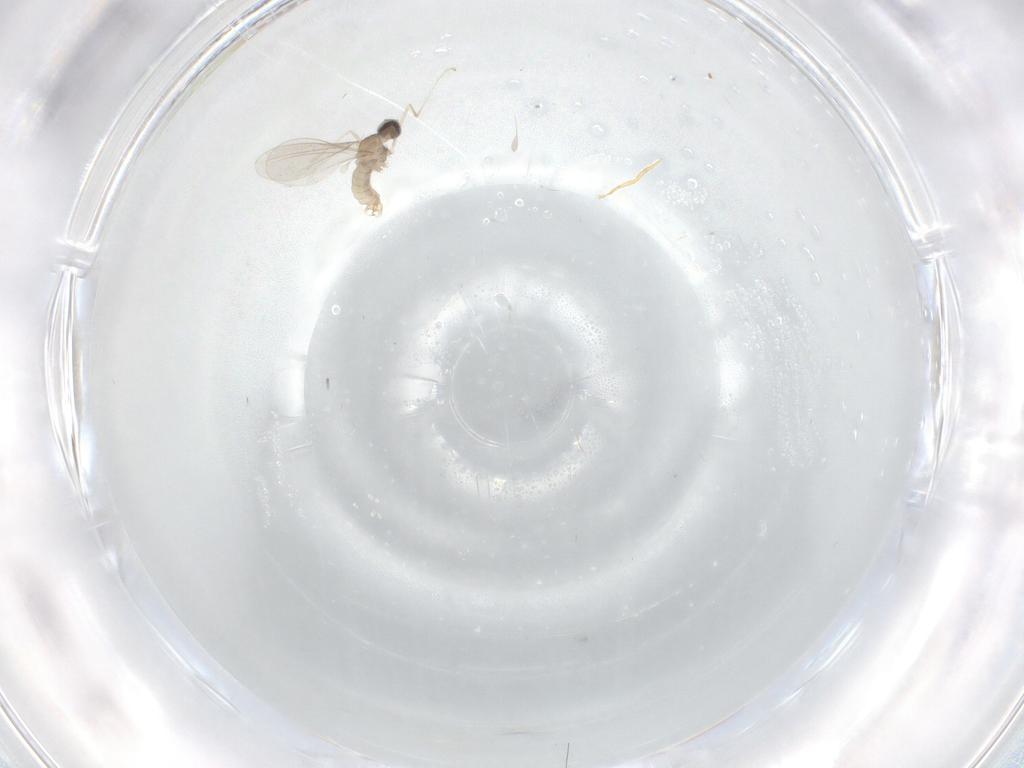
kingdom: Animalia
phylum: Arthropoda
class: Insecta
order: Diptera
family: Cecidomyiidae
